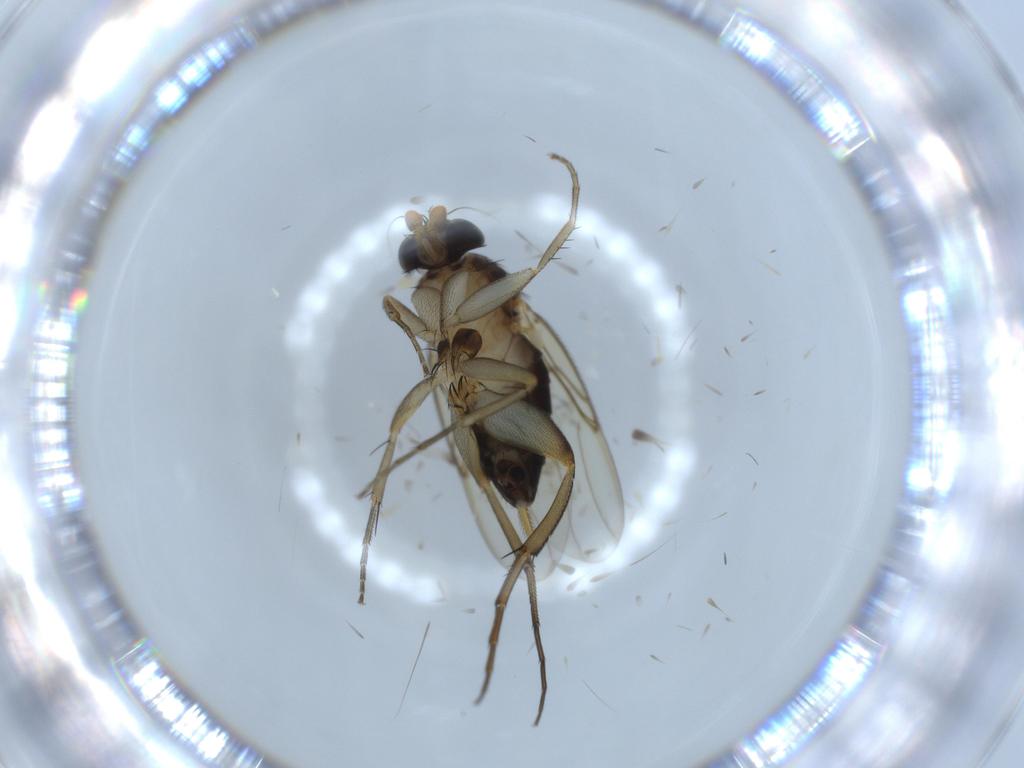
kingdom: Animalia
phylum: Arthropoda
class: Insecta
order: Diptera
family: Phoridae
